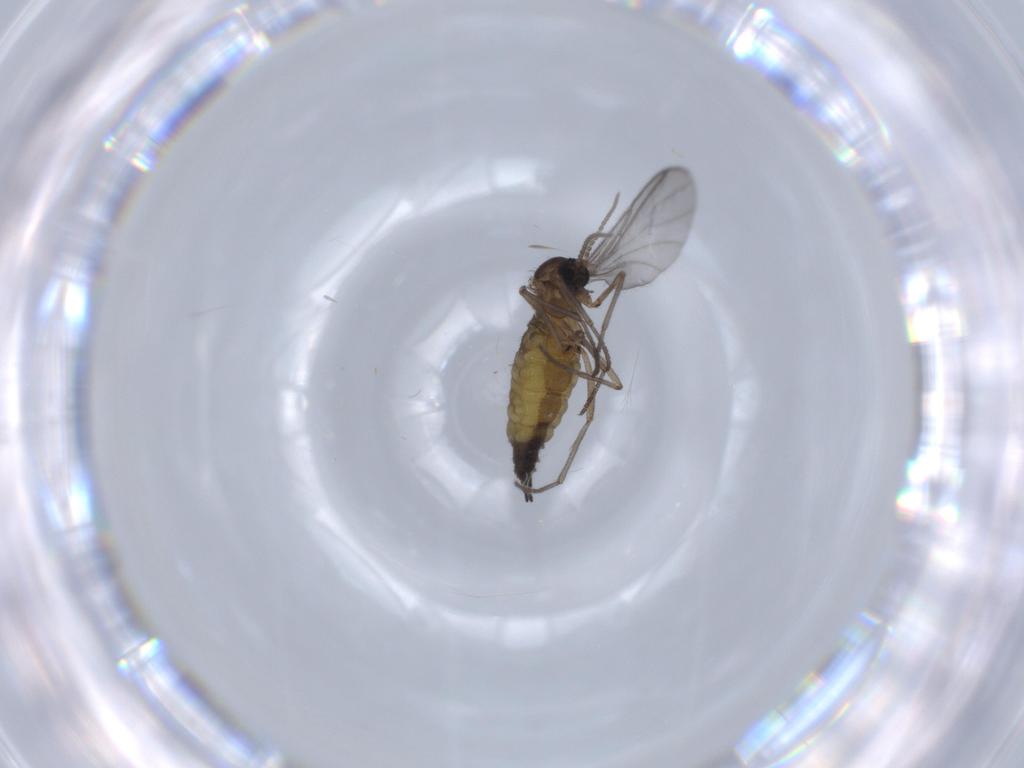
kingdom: Animalia
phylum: Arthropoda
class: Insecta
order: Diptera
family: Sciaridae
